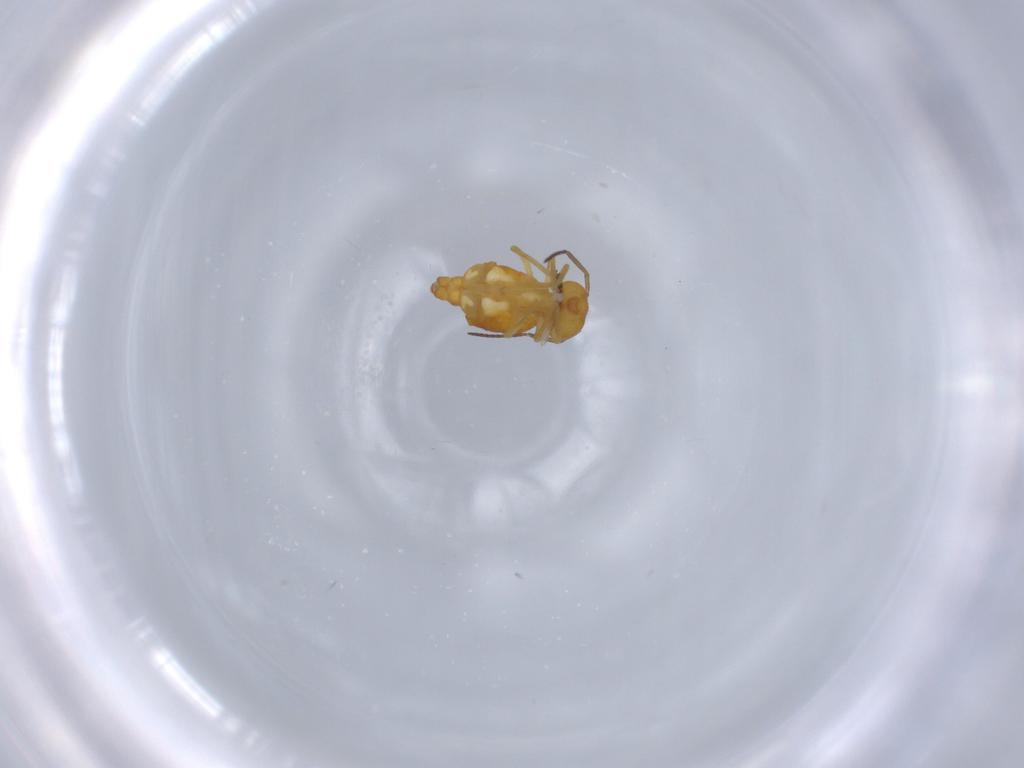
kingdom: Animalia
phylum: Arthropoda
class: Collembola
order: Symphypleona
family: Bourletiellidae
